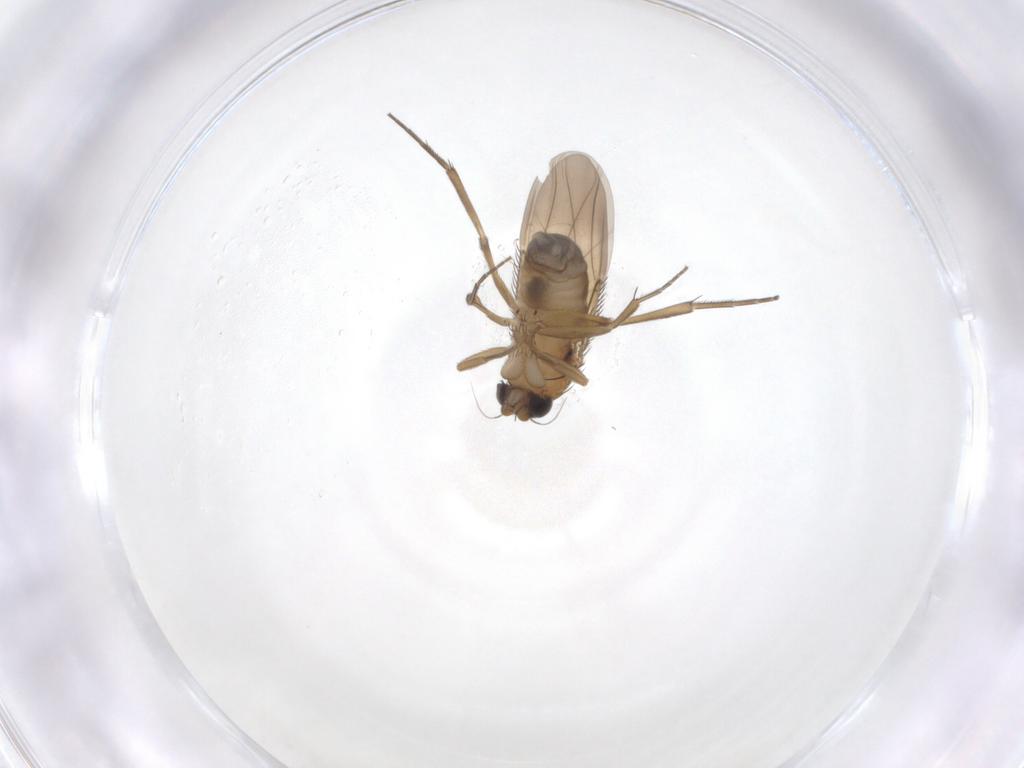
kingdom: Animalia
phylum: Arthropoda
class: Insecta
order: Diptera
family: Phoridae
